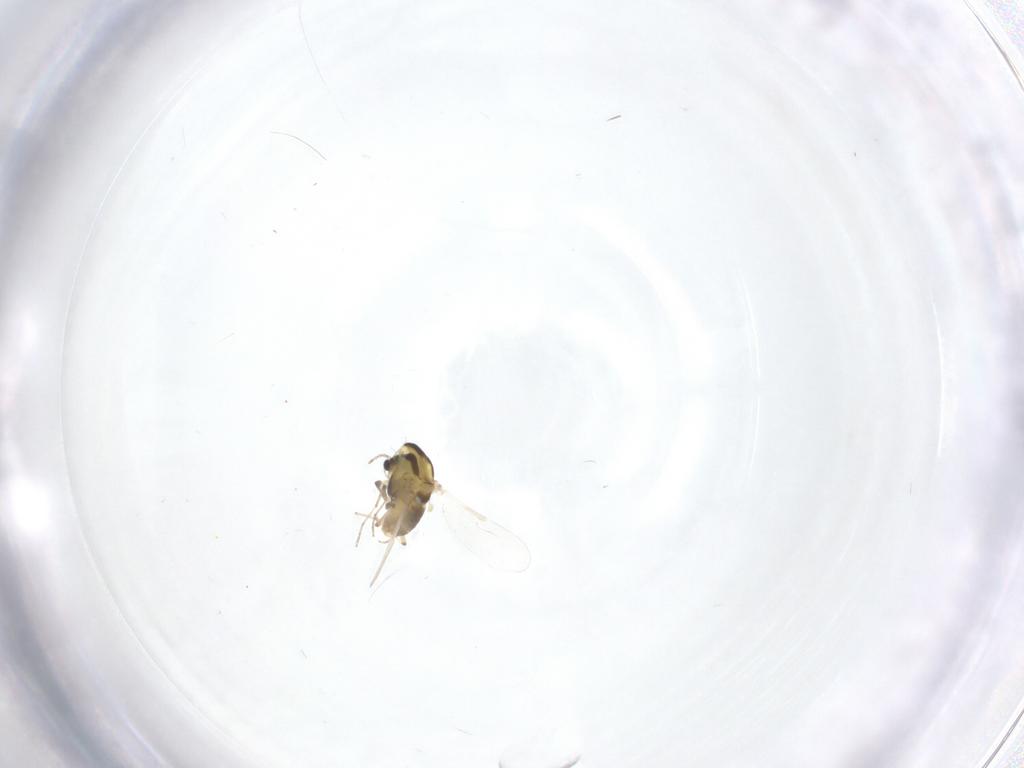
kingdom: Animalia
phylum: Arthropoda
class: Insecta
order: Diptera
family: Chironomidae
